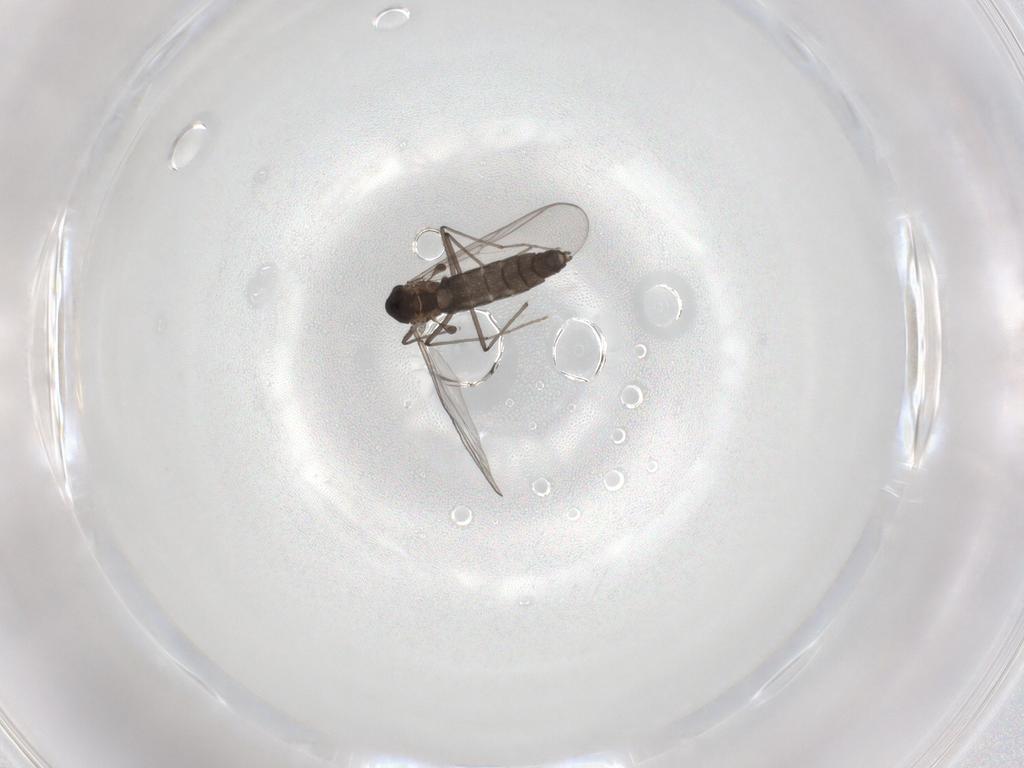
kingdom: Animalia
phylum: Arthropoda
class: Insecta
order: Diptera
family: Chironomidae
